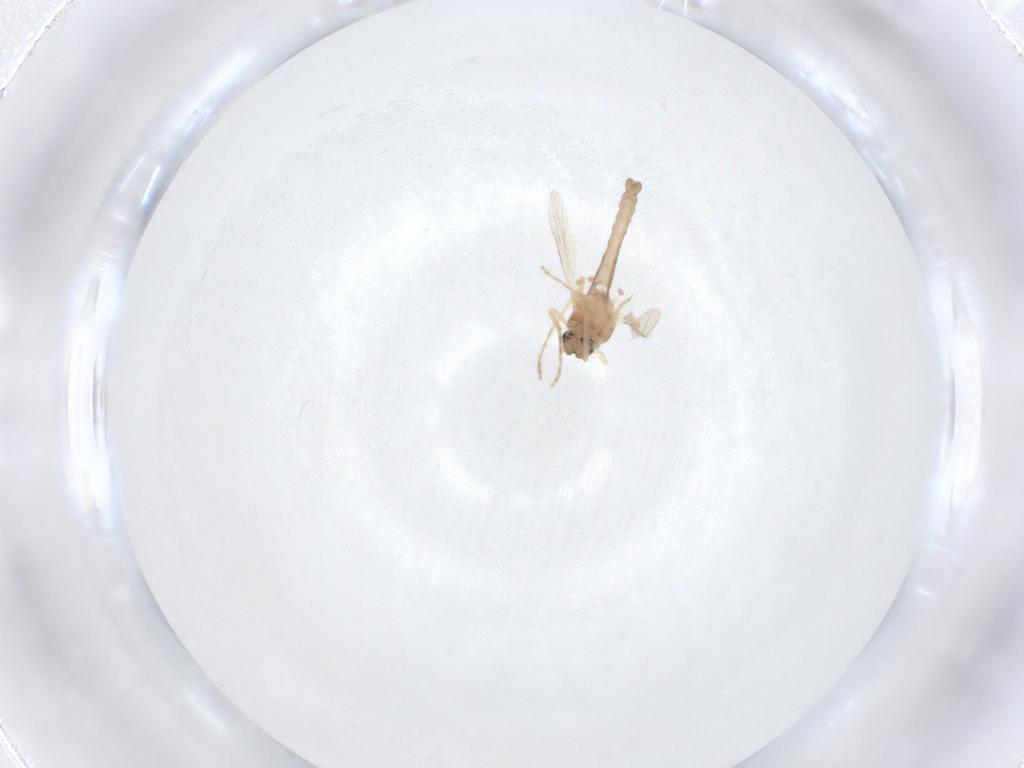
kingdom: Animalia
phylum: Arthropoda
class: Insecta
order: Diptera
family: Ceratopogonidae
